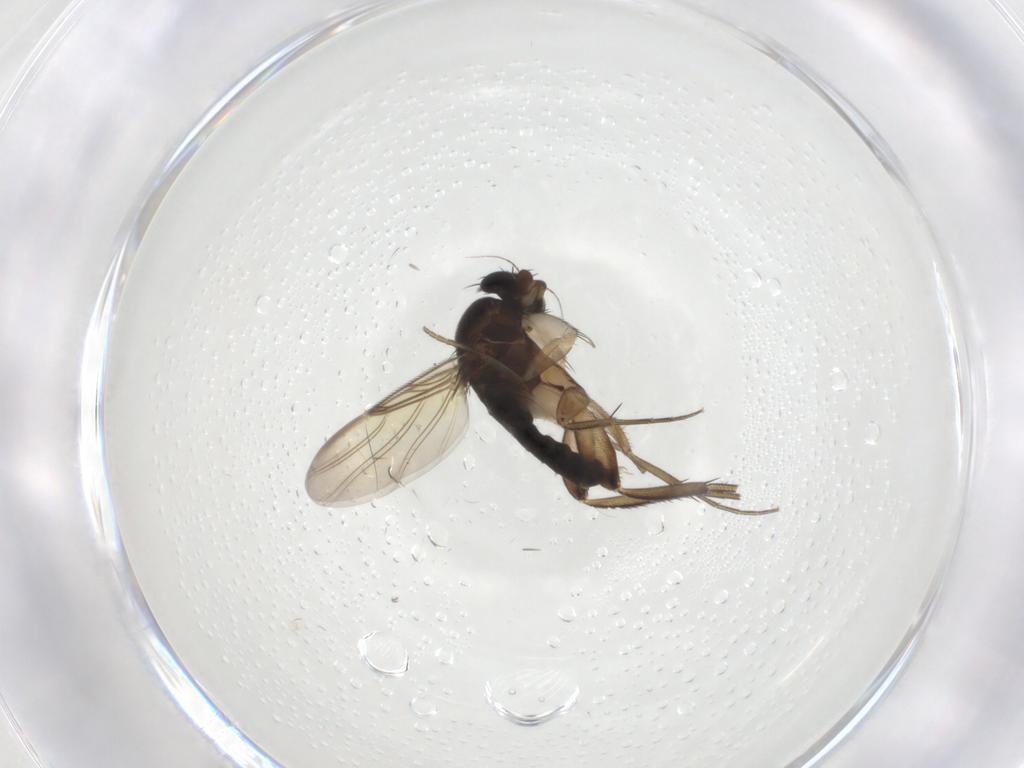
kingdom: Animalia
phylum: Arthropoda
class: Insecta
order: Diptera
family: Phoridae
